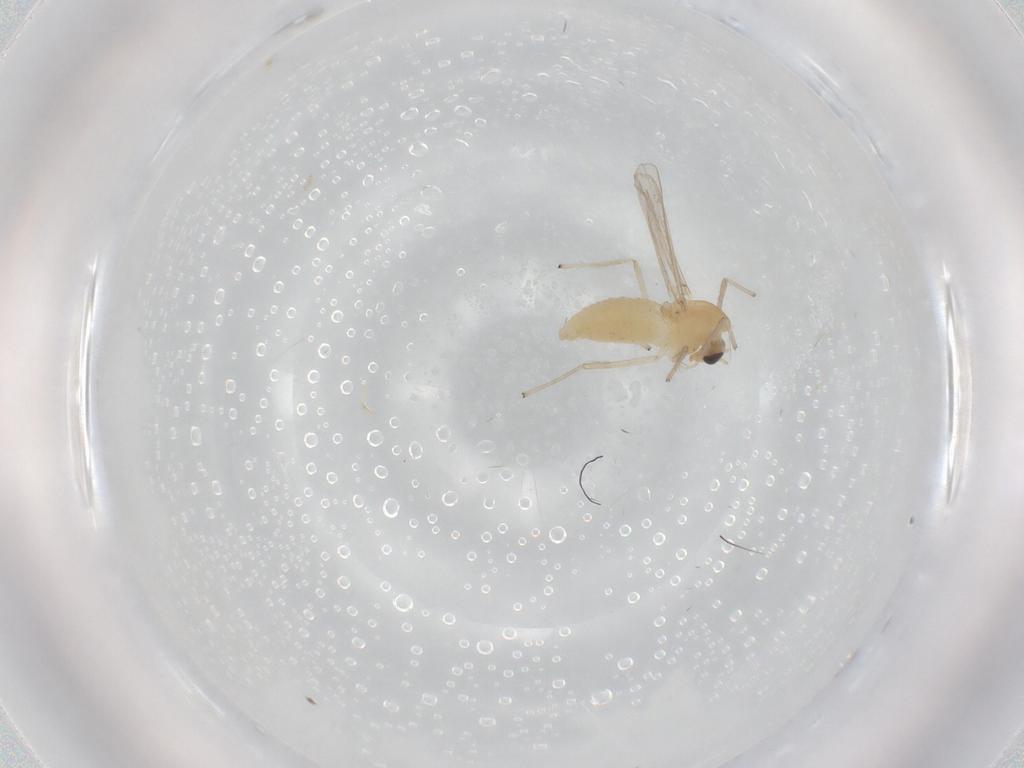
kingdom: Animalia
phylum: Arthropoda
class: Insecta
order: Diptera
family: Chironomidae
